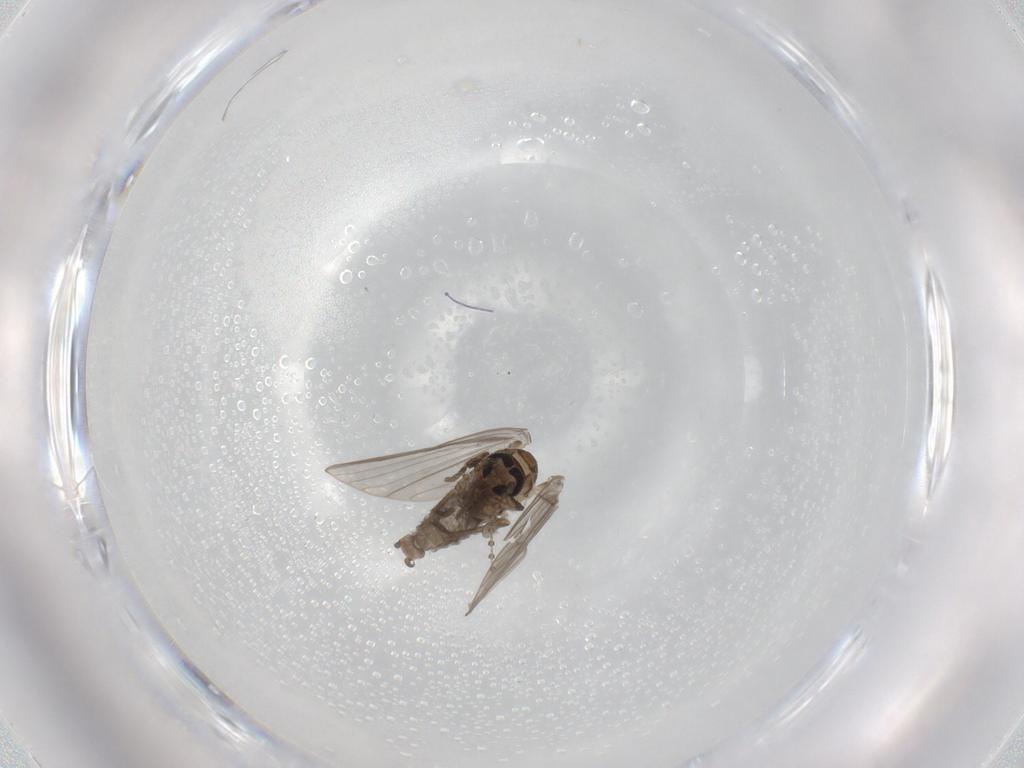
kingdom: Animalia
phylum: Arthropoda
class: Insecta
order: Diptera
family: Psychodidae
